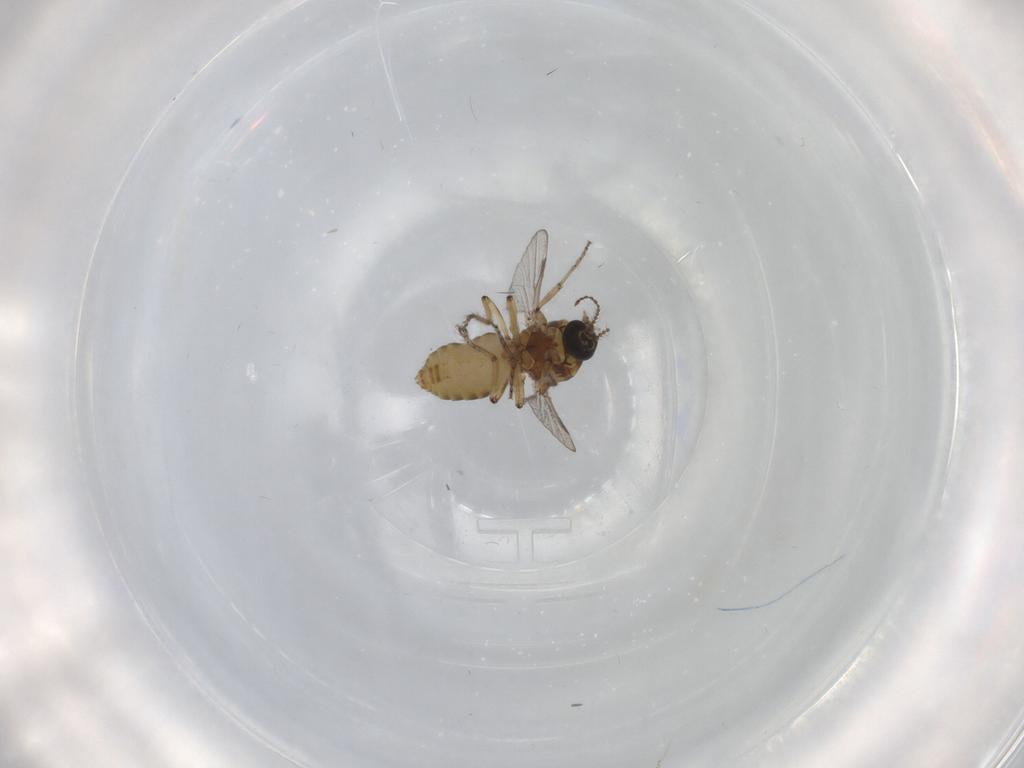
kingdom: Animalia
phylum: Arthropoda
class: Insecta
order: Diptera
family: Ceratopogonidae
